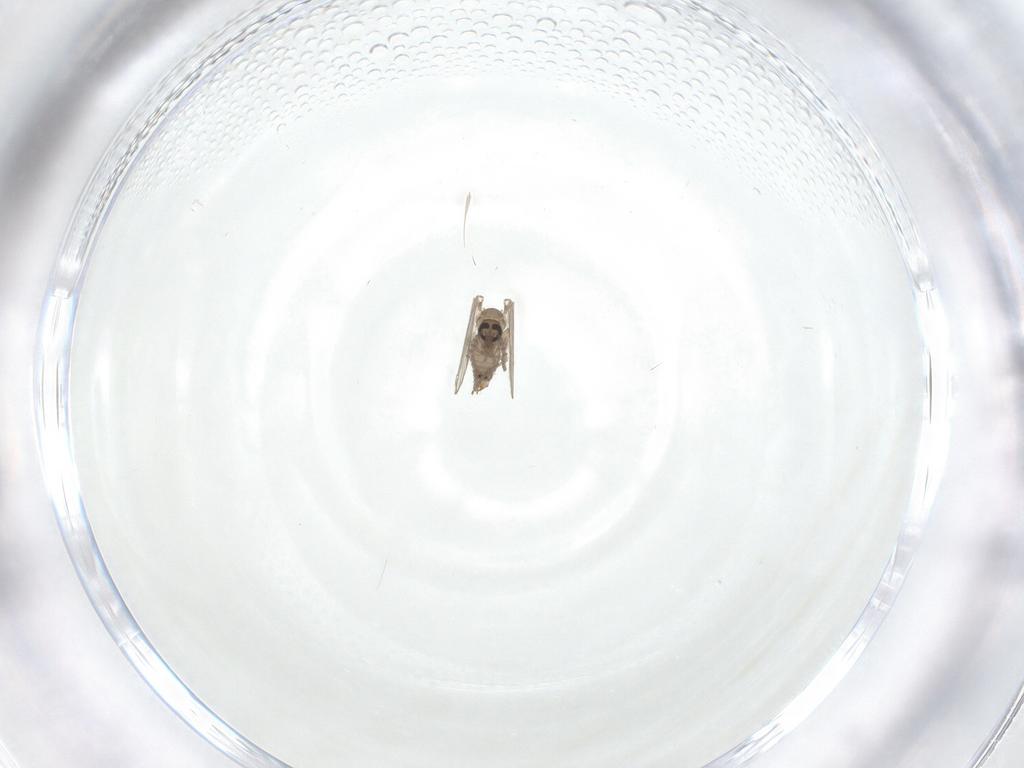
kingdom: Animalia
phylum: Arthropoda
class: Insecta
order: Diptera
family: Psychodidae
